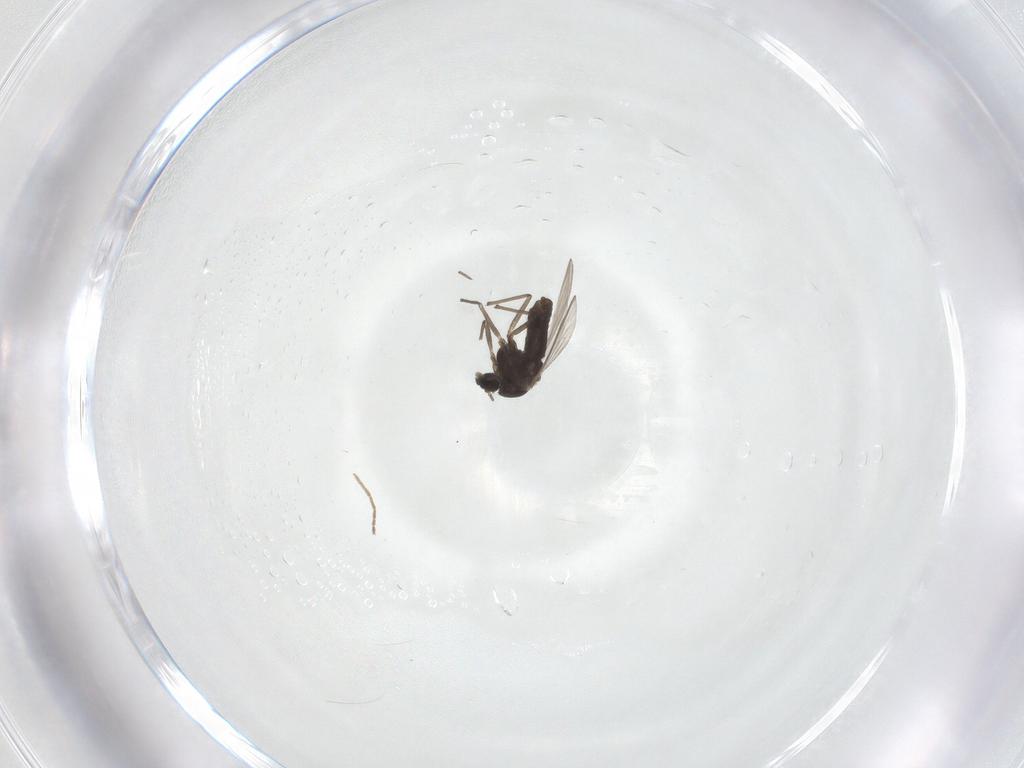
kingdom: Animalia
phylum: Arthropoda
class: Insecta
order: Diptera
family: Chironomidae
